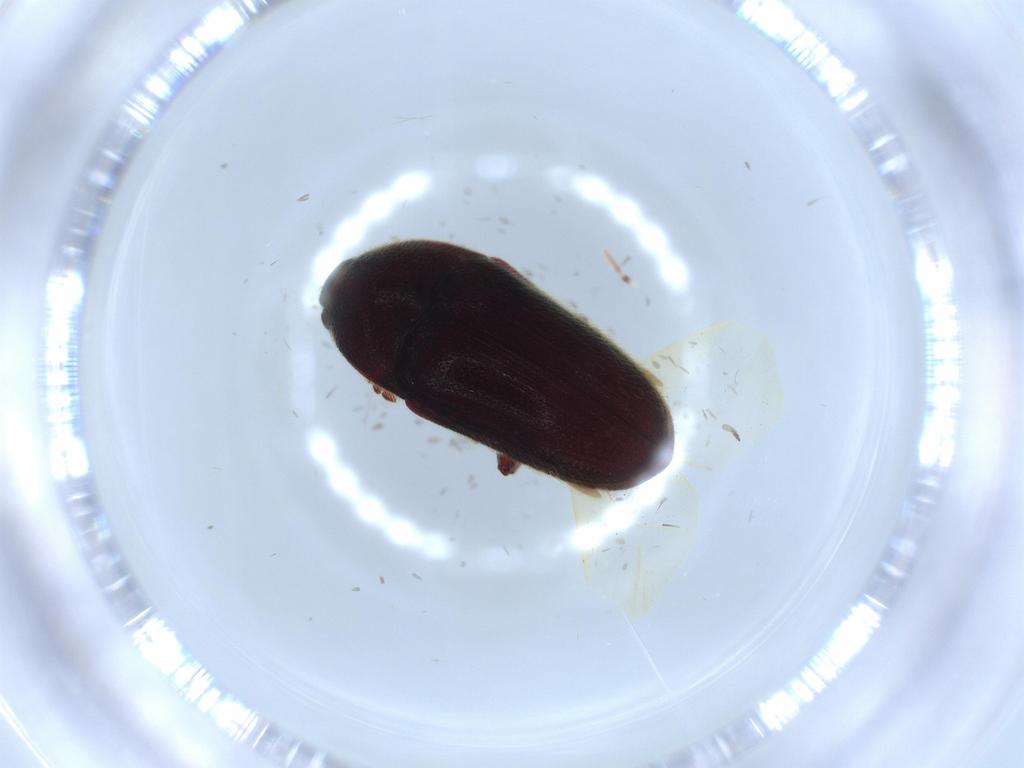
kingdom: Animalia
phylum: Arthropoda
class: Insecta
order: Coleoptera
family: Throscidae
